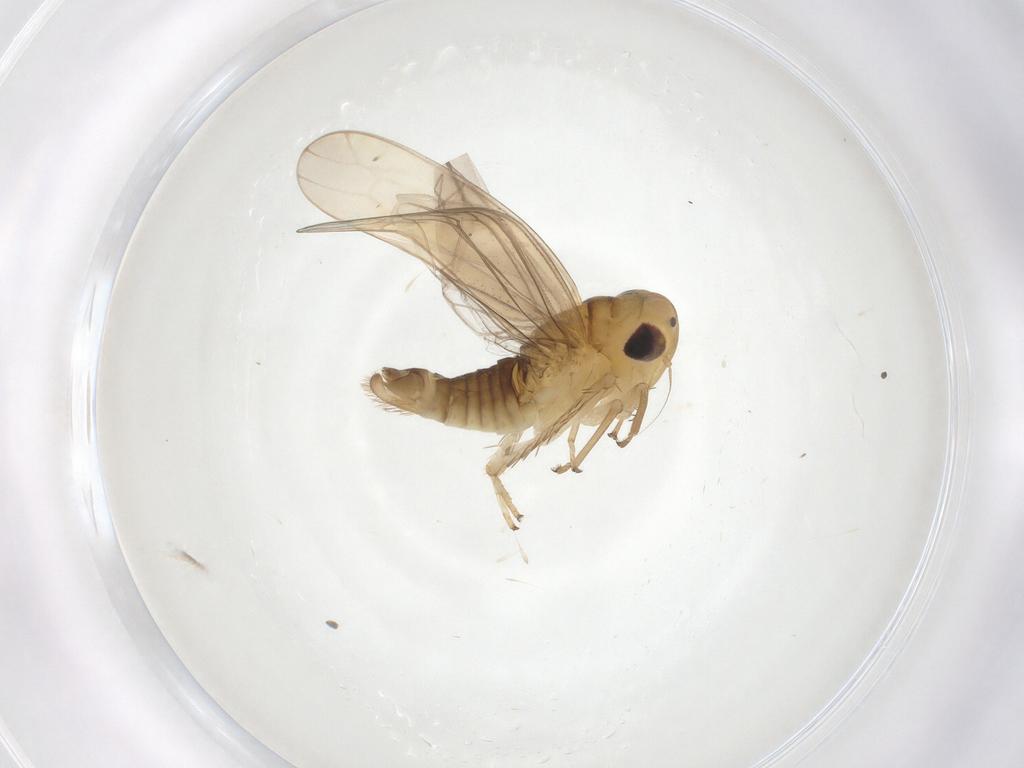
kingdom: Animalia
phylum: Arthropoda
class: Insecta
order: Hemiptera
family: Cicadellidae
